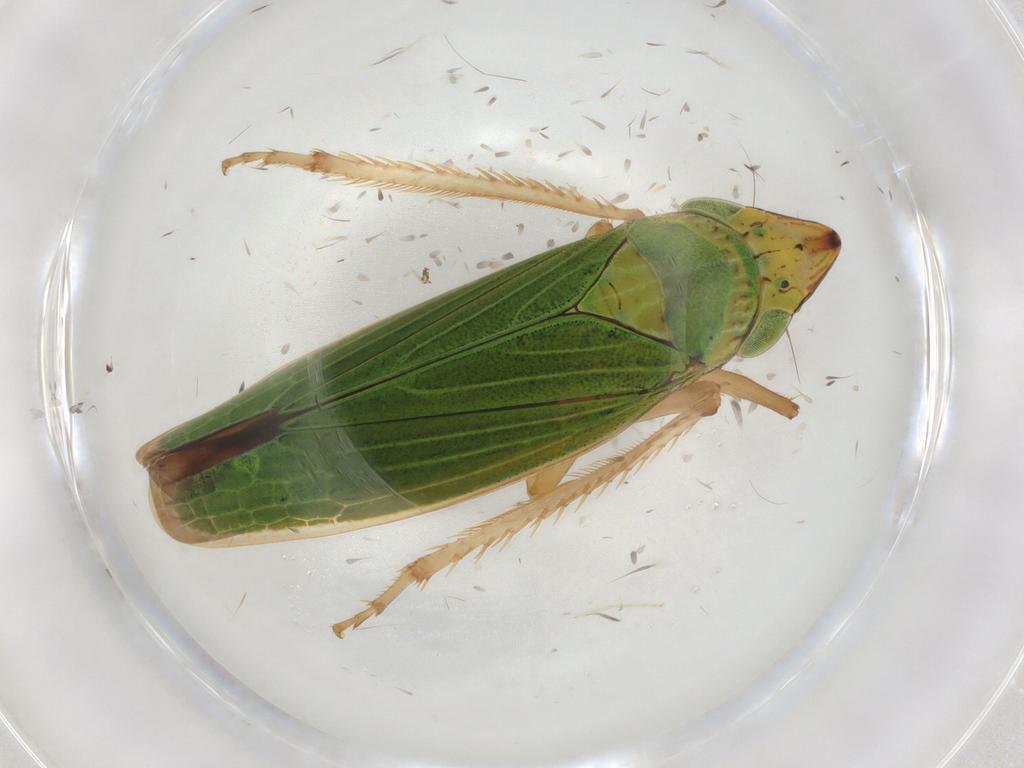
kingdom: Animalia
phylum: Arthropoda
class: Insecta
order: Hemiptera
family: Cicadellidae
